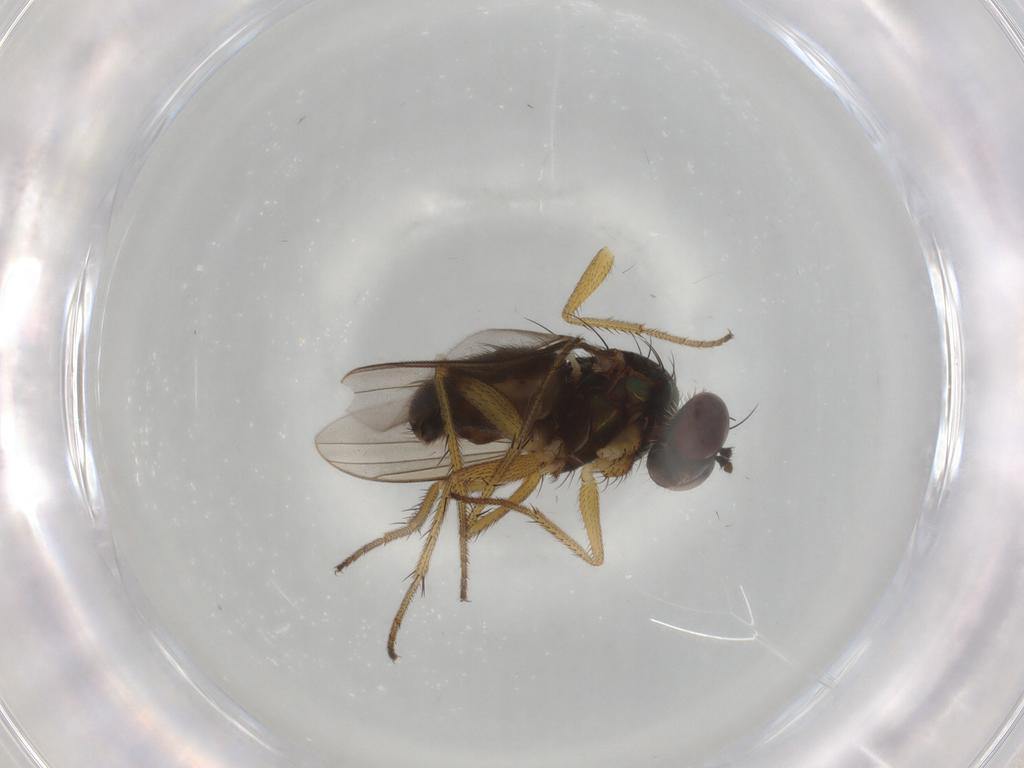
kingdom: Animalia
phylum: Arthropoda
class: Insecta
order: Diptera
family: Dolichopodidae
